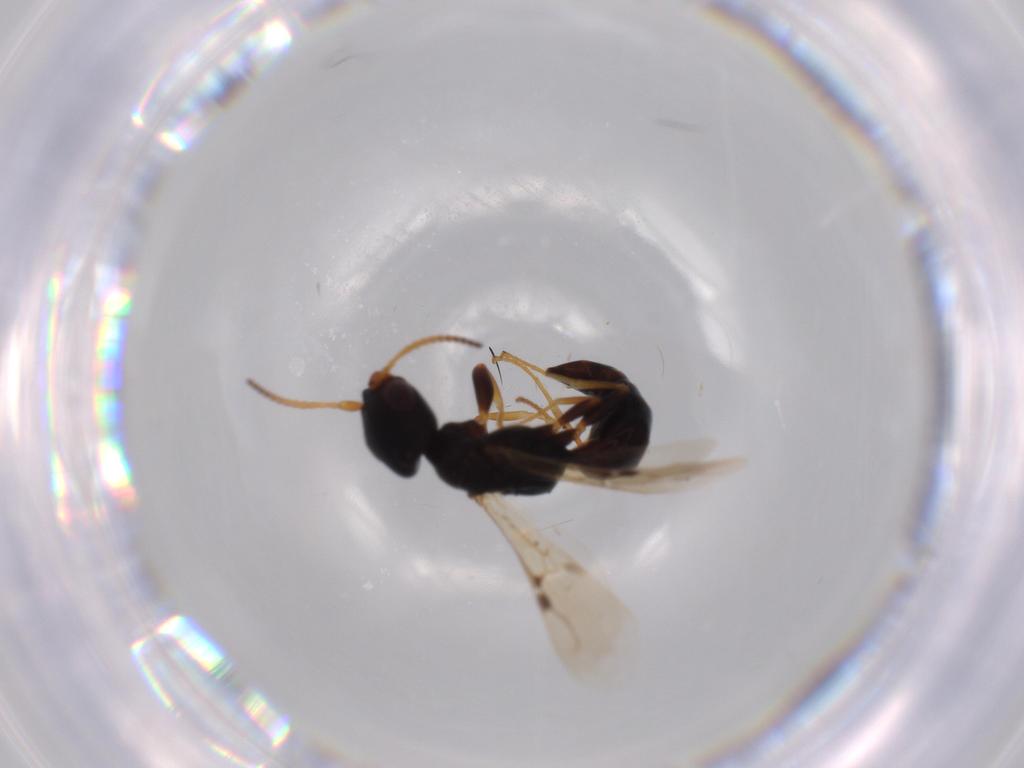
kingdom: Animalia
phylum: Arthropoda
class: Insecta
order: Hymenoptera
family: Bethylidae
